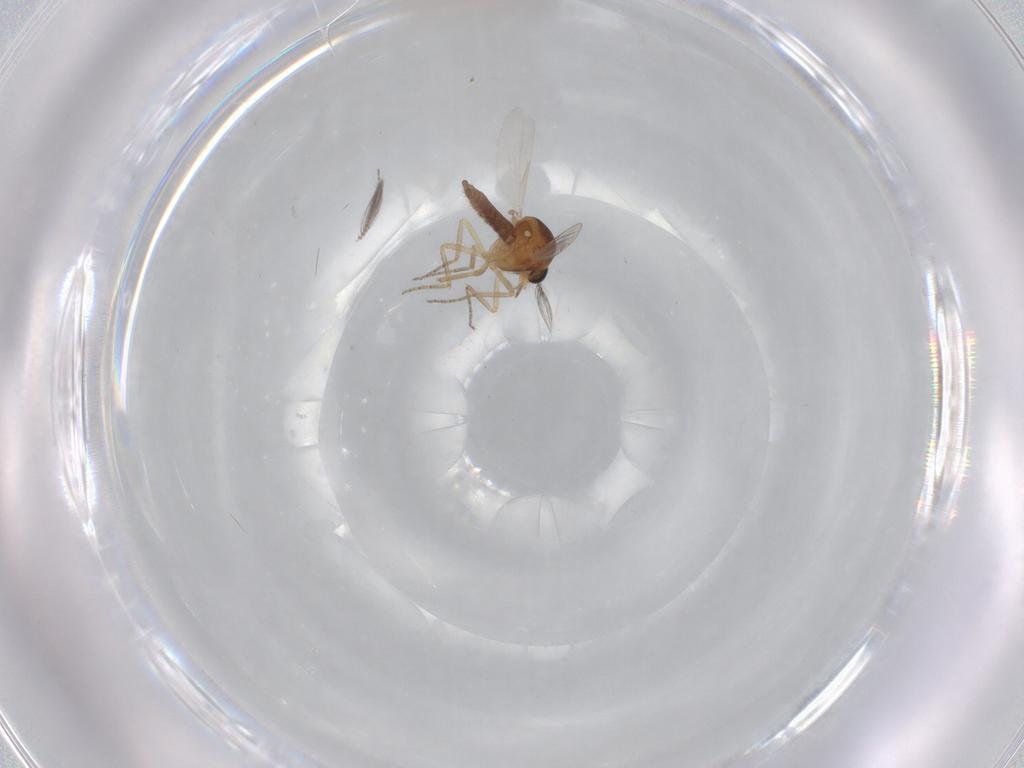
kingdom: Animalia
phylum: Arthropoda
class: Insecta
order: Diptera
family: Ceratopogonidae
